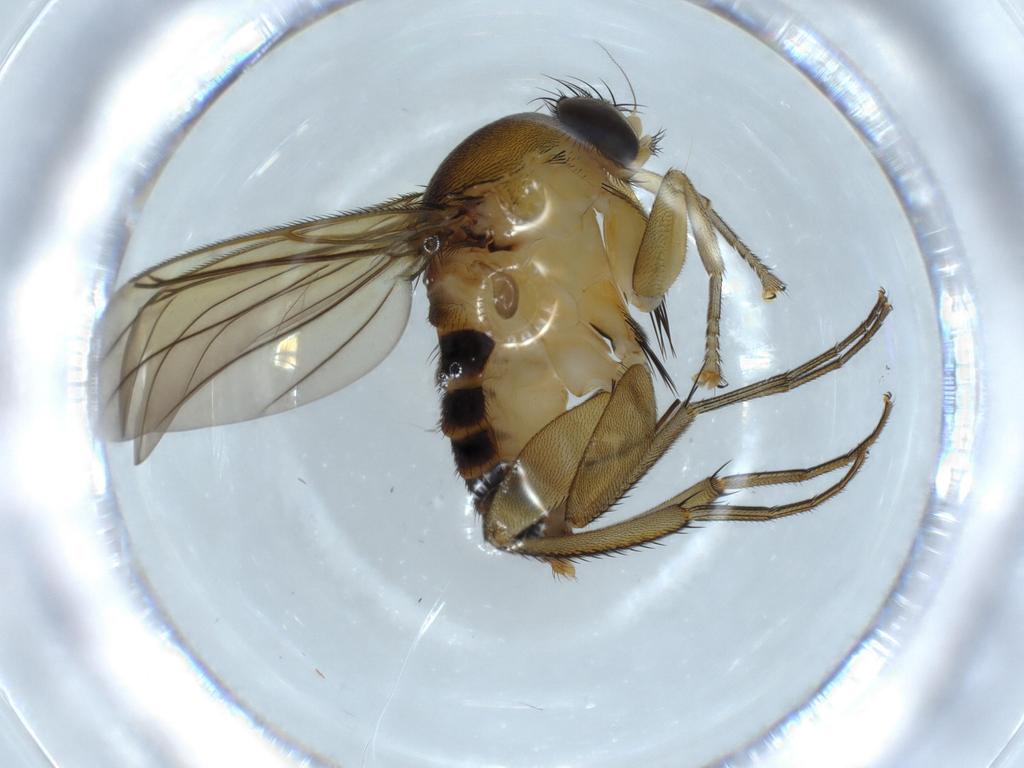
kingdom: Animalia
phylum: Arthropoda
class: Insecta
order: Diptera
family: Phoridae
